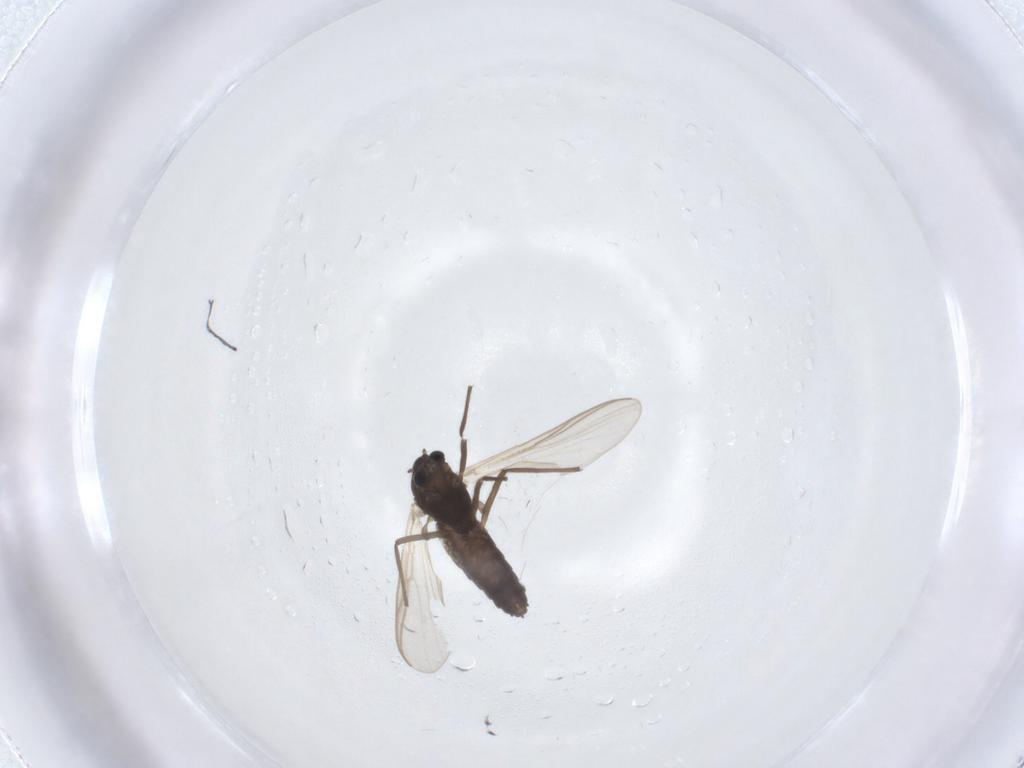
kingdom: Animalia
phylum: Arthropoda
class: Insecta
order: Diptera
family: Chironomidae
